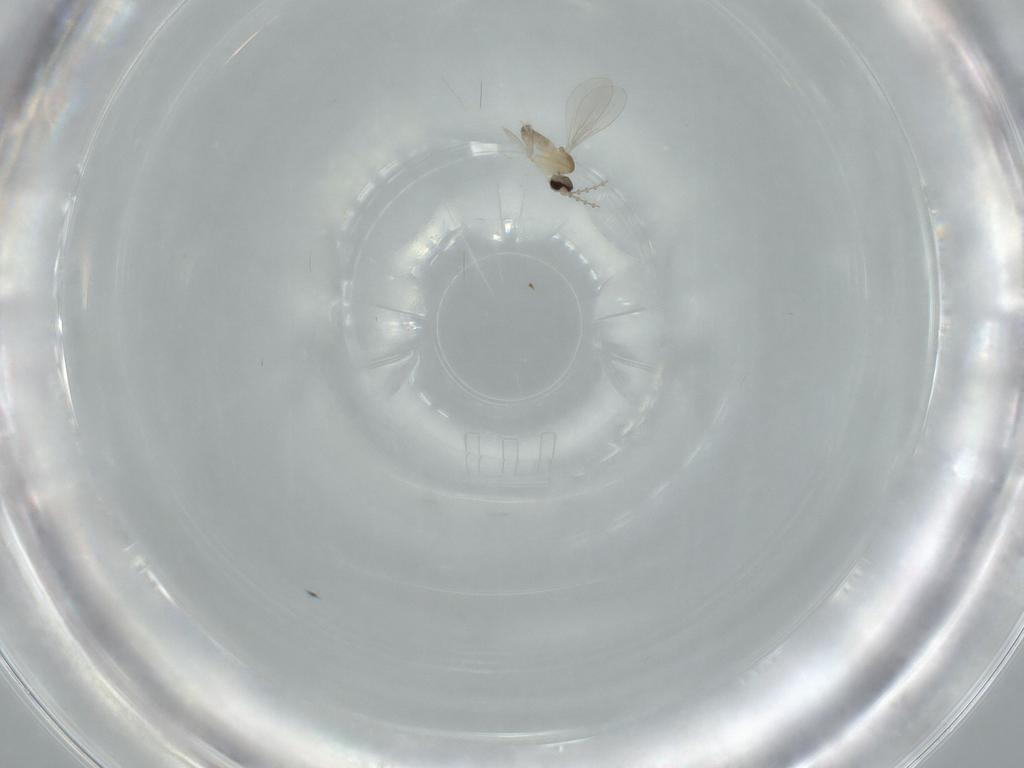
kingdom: Animalia
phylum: Arthropoda
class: Insecta
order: Diptera
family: Cecidomyiidae
